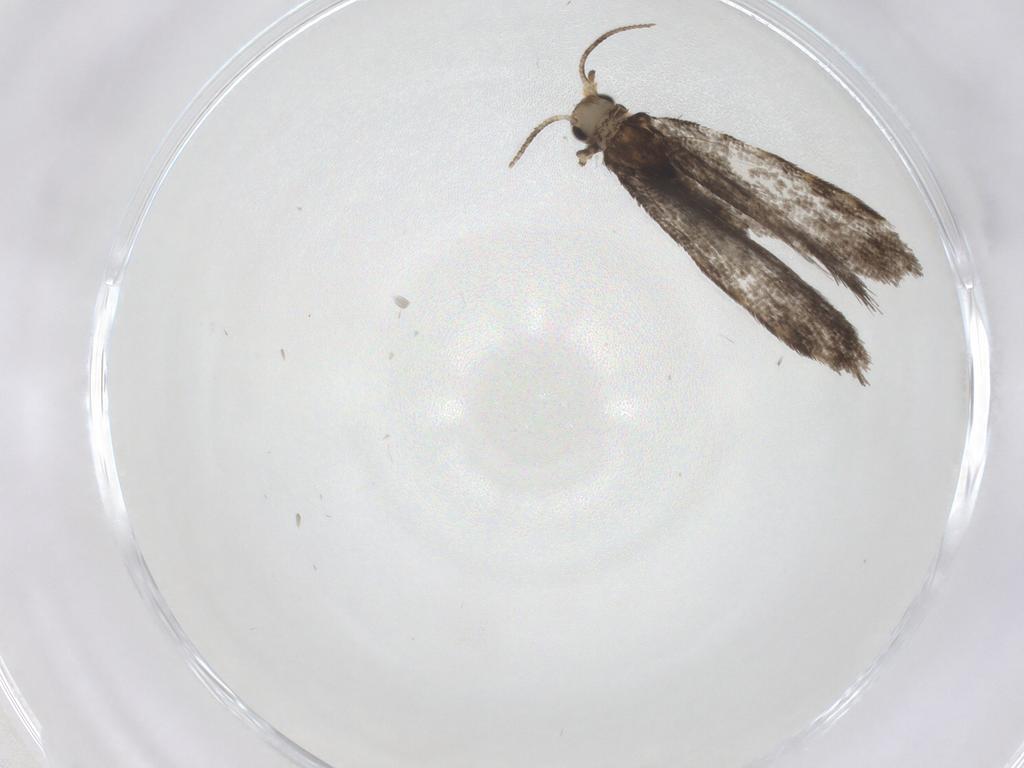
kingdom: Animalia
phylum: Arthropoda
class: Insecta
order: Lepidoptera
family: Psychidae
